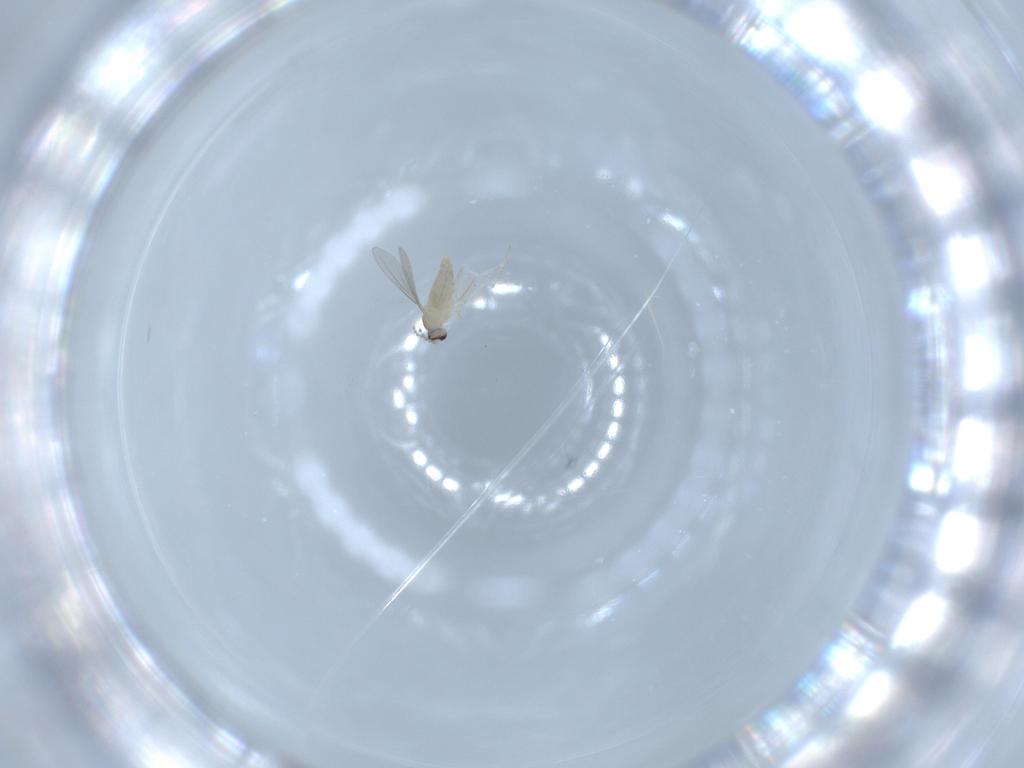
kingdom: Animalia
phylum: Arthropoda
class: Insecta
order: Diptera
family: Cecidomyiidae
